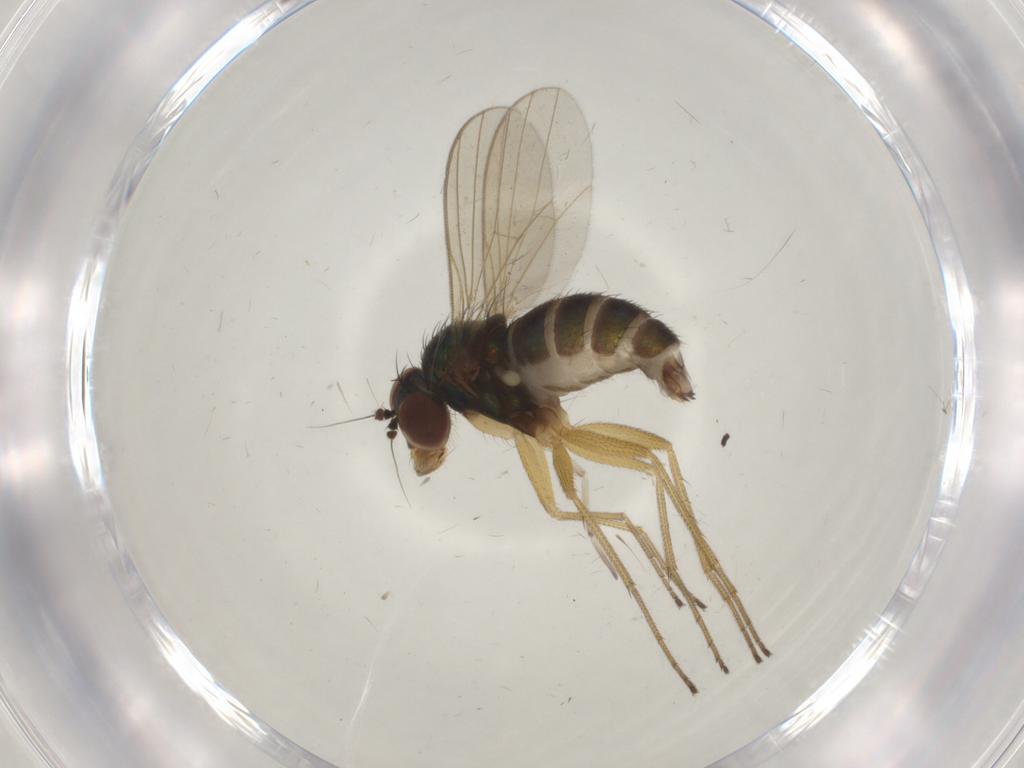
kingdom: Animalia
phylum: Arthropoda
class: Insecta
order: Diptera
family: Dolichopodidae
